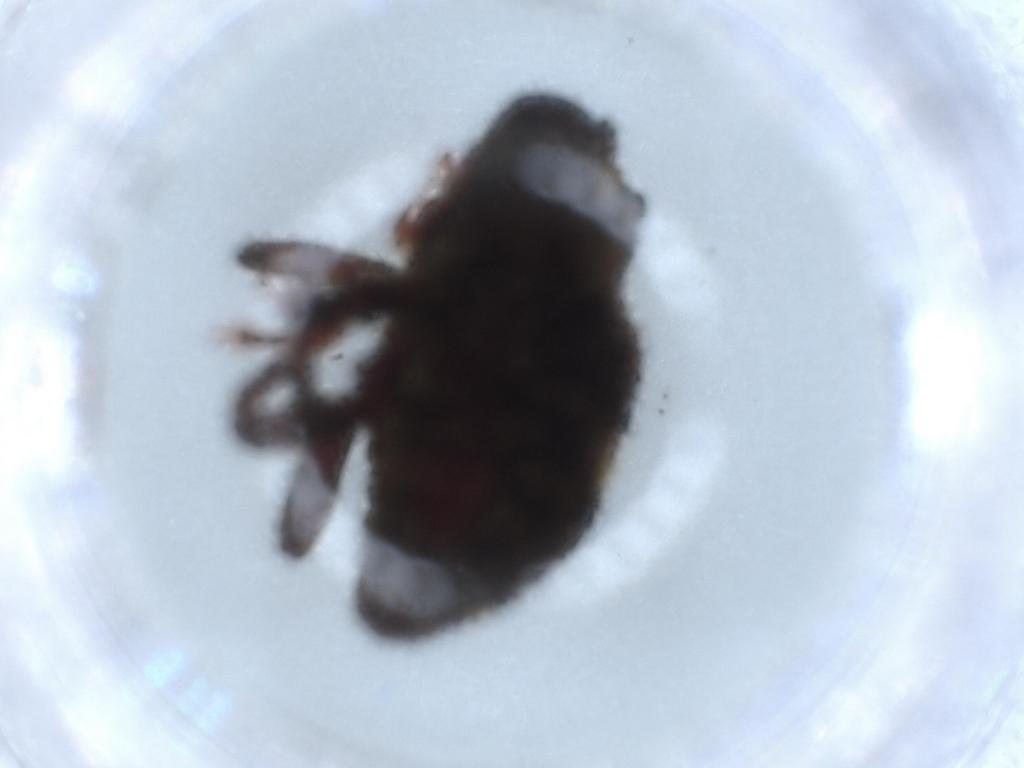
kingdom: Animalia
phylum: Arthropoda
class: Insecta
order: Coleoptera
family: Curculionidae
